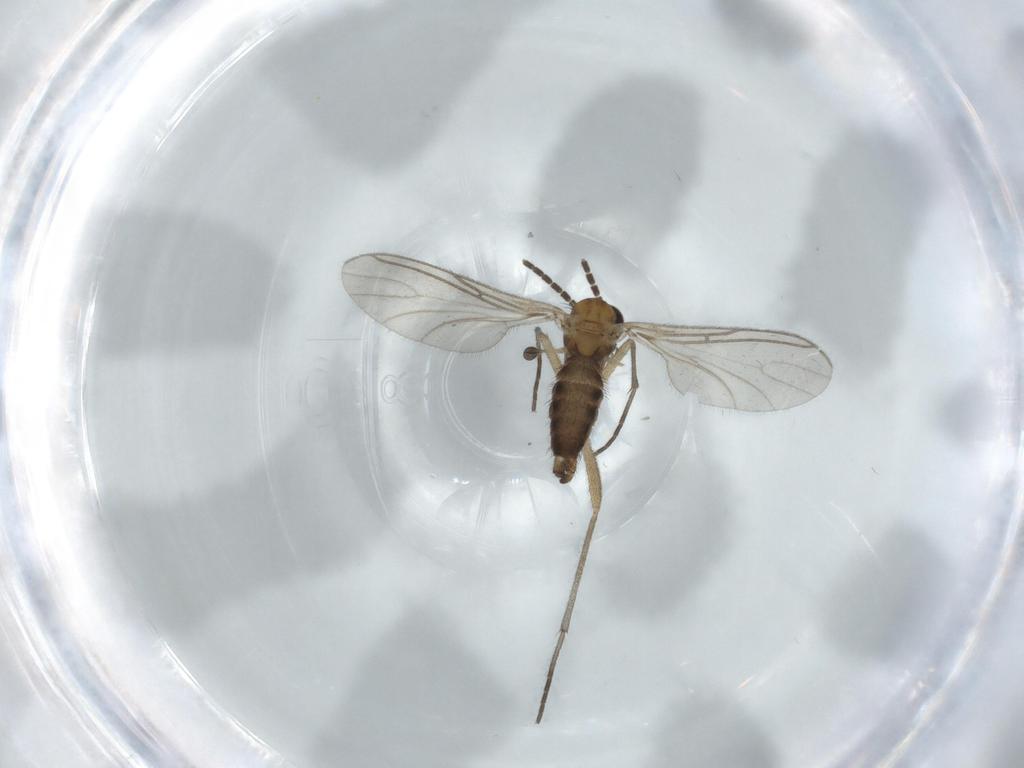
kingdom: Animalia
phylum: Arthropoda
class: Insecta
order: Diptera
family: Sciaridae
